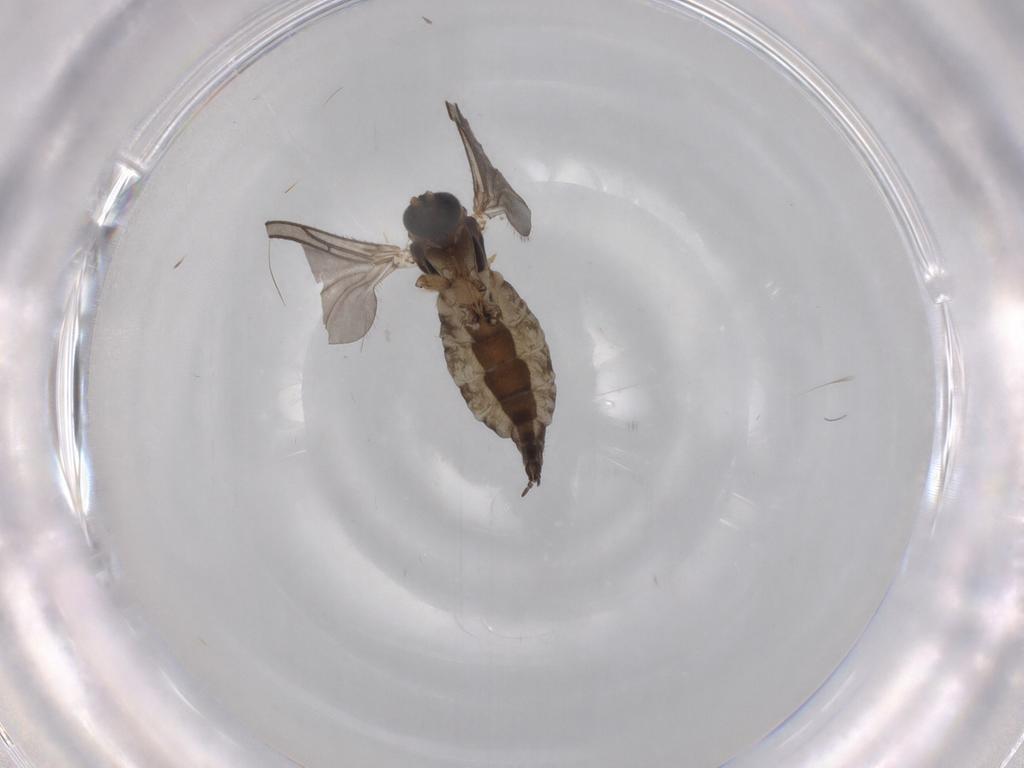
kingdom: Animalia
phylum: Arthropoda
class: Insecta
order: Diptera
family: Sciaridae
